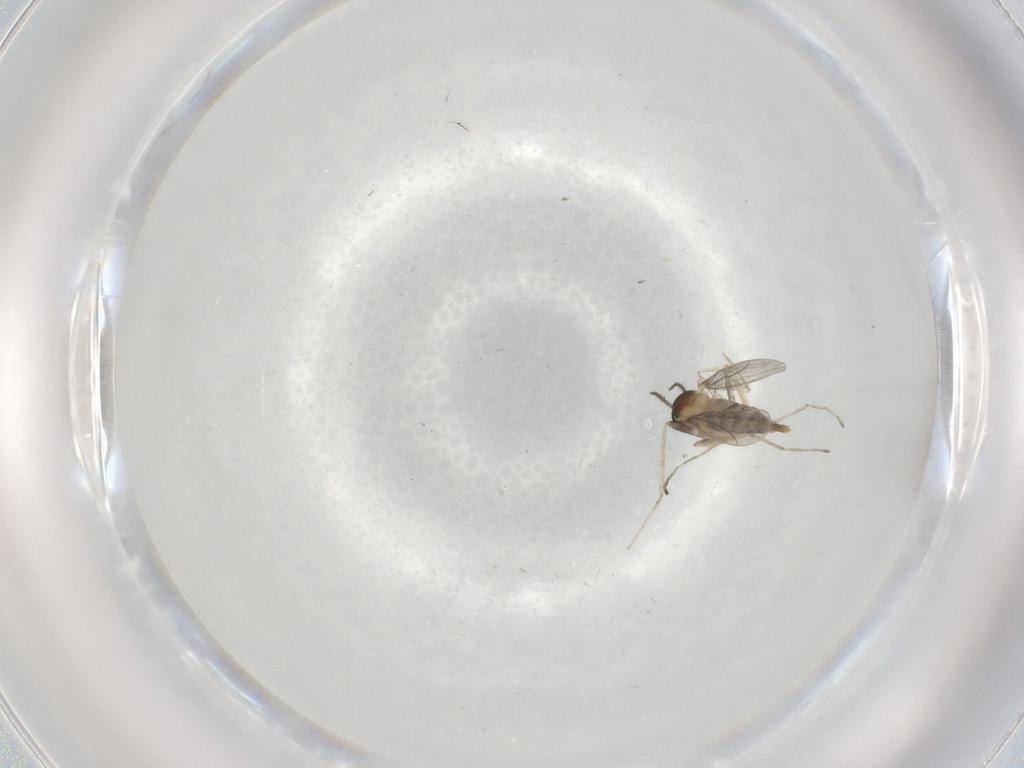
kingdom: Animalia
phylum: Arthropoda
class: Insecta
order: Diptera
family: Cecidomyiidae
